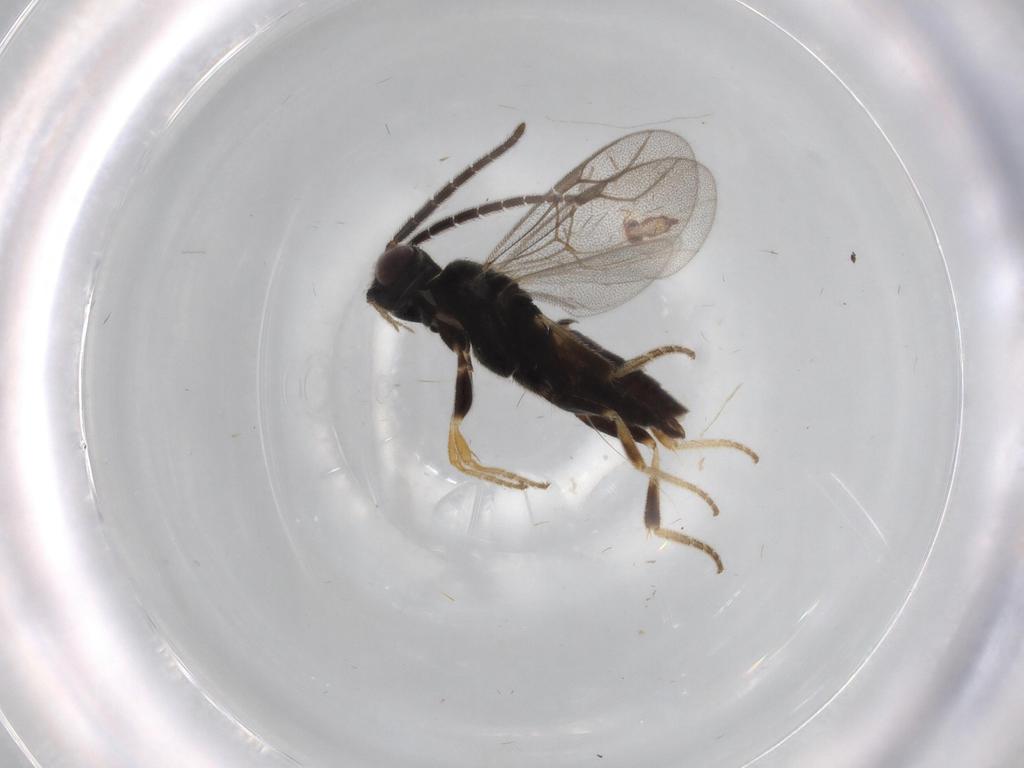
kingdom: Animalia
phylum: Arthropoda
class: Insecta
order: Hymenoptera
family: Dryinidae
